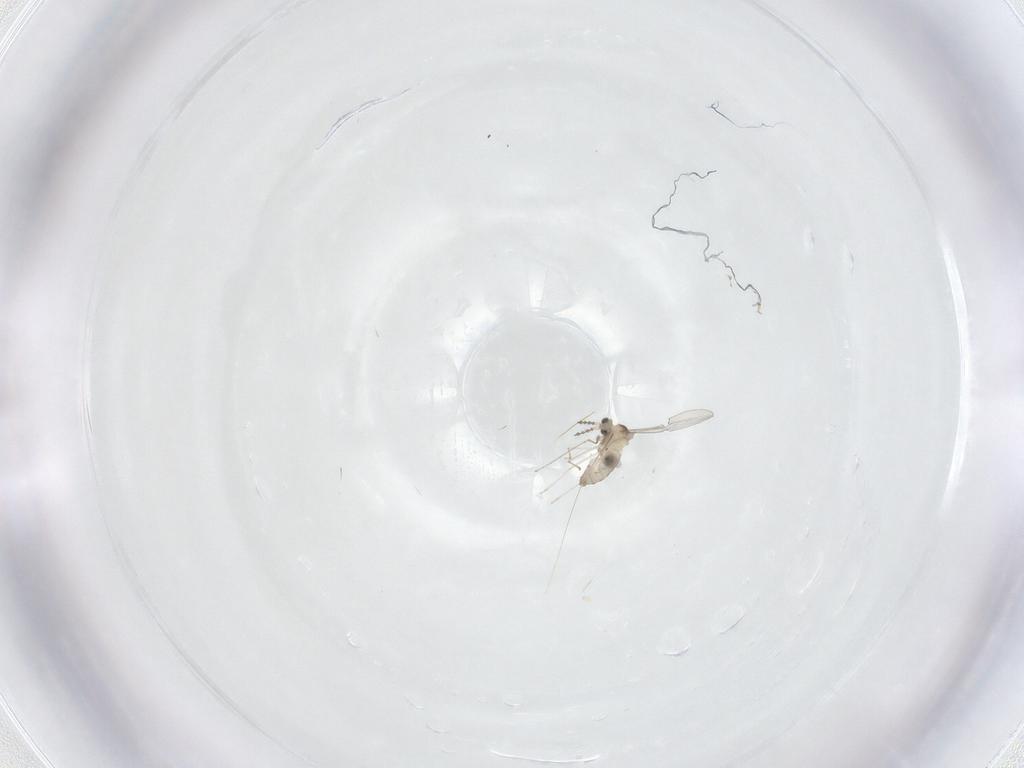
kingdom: Animalia
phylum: Arthropoda
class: Insecta
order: Diptera
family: Cecidomyiidae
